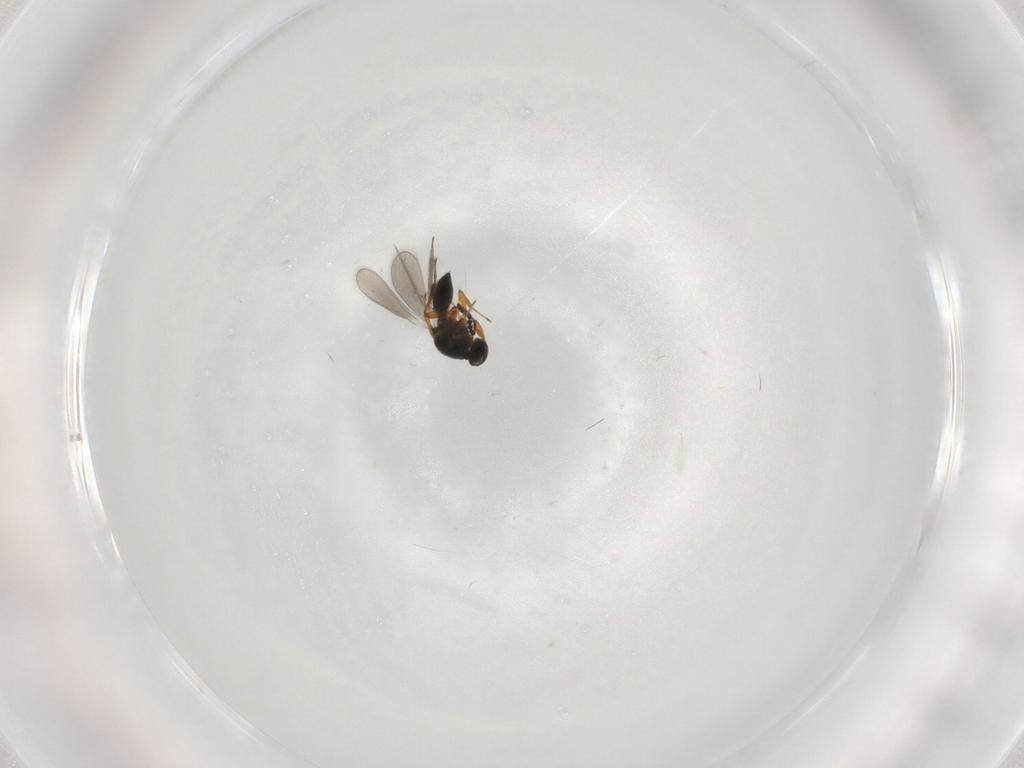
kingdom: Animalia
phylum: Arthropoda
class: Insecta
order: Hymenoptera
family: Platygastridae
